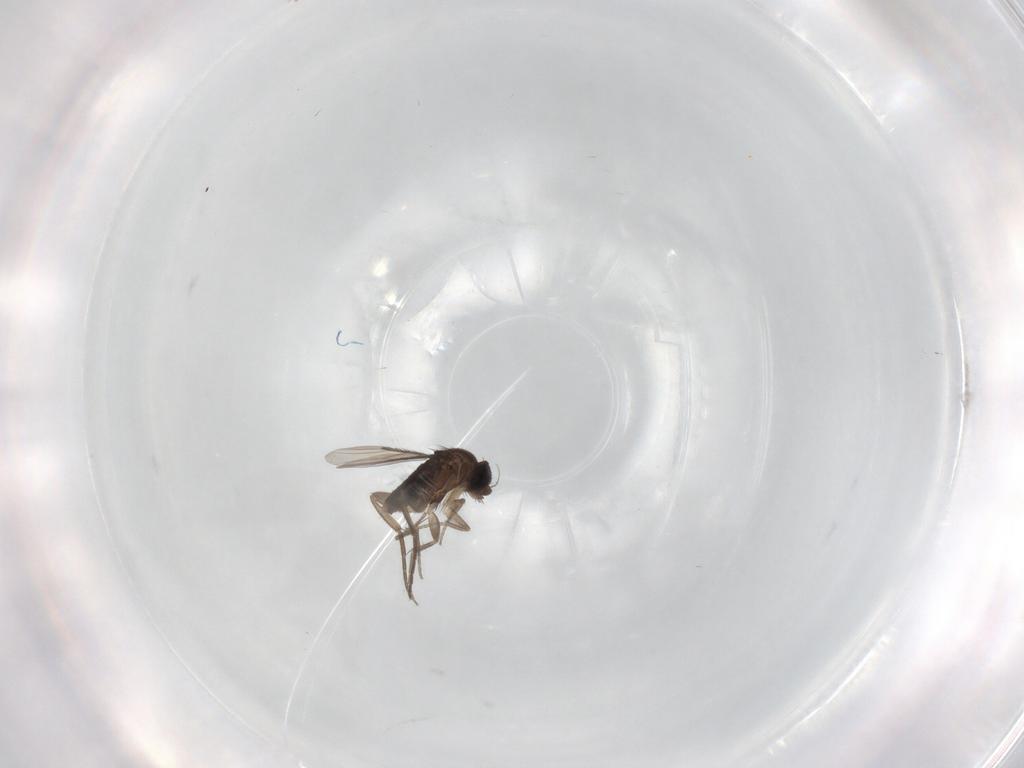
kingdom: Animalia
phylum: Arthropoda
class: Insecta
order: Diptera
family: Phoridae
